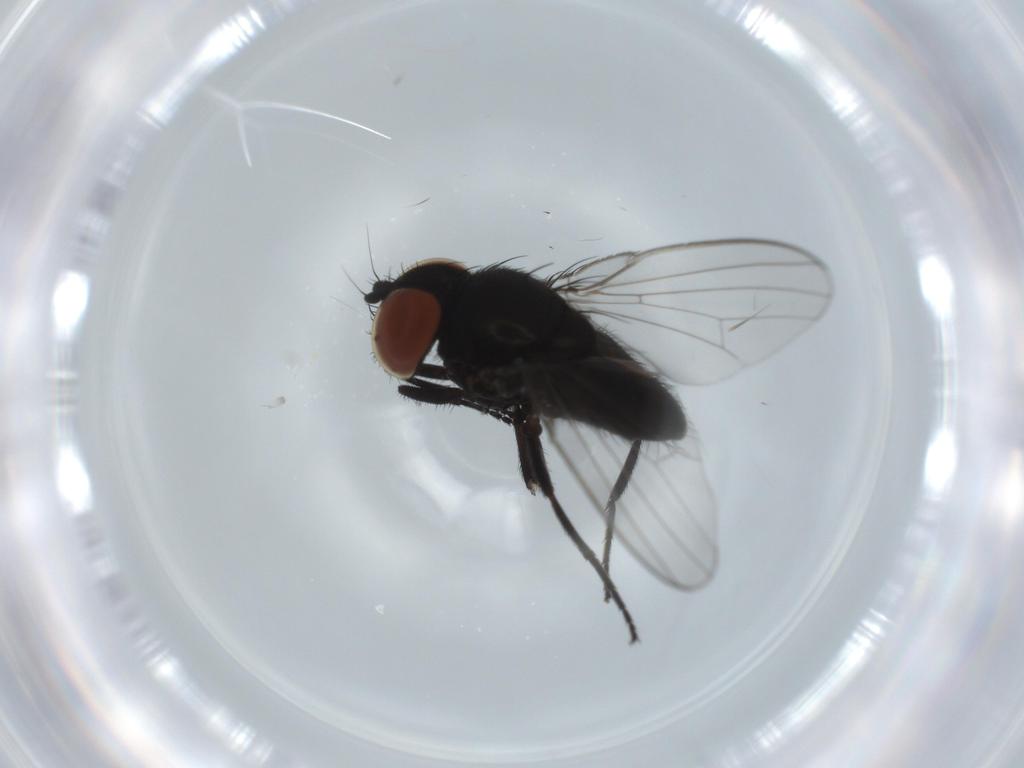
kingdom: Animalia
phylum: Arthropoda
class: Insecta
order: Diptera
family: Milichiidae
